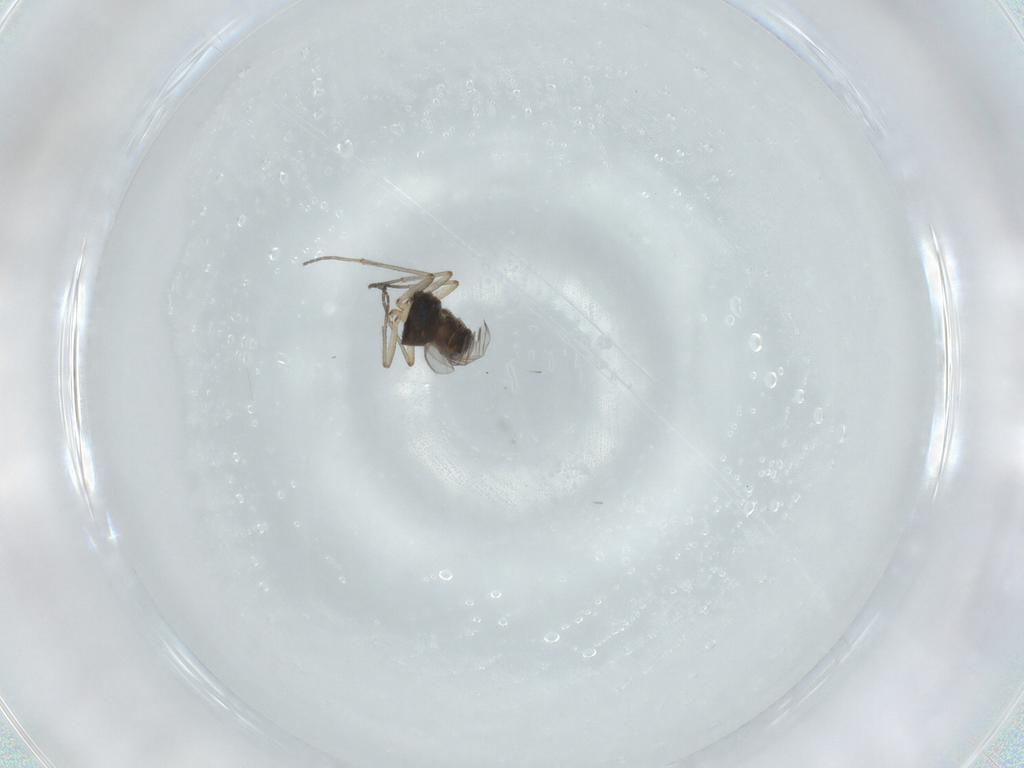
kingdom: Animalia
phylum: Arthropoda
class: Insecta
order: Diptera
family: Sciaridae
